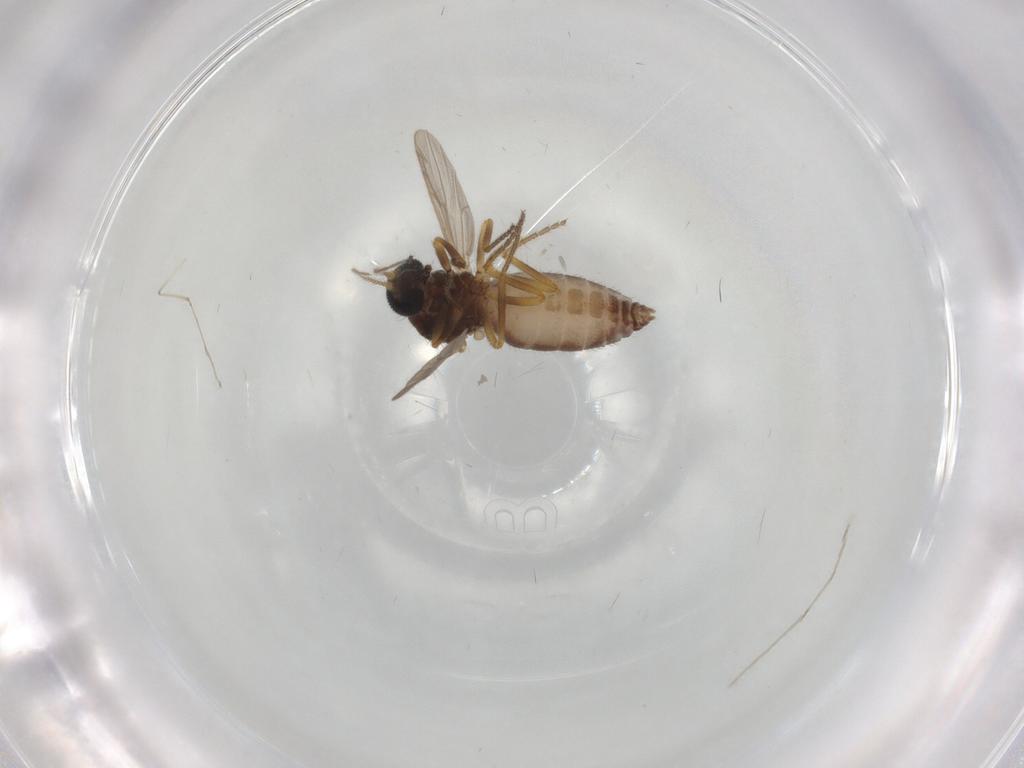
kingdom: Animalia
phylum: Arthropoda
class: Insecta
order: Diptera
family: Ceratopogonidae
